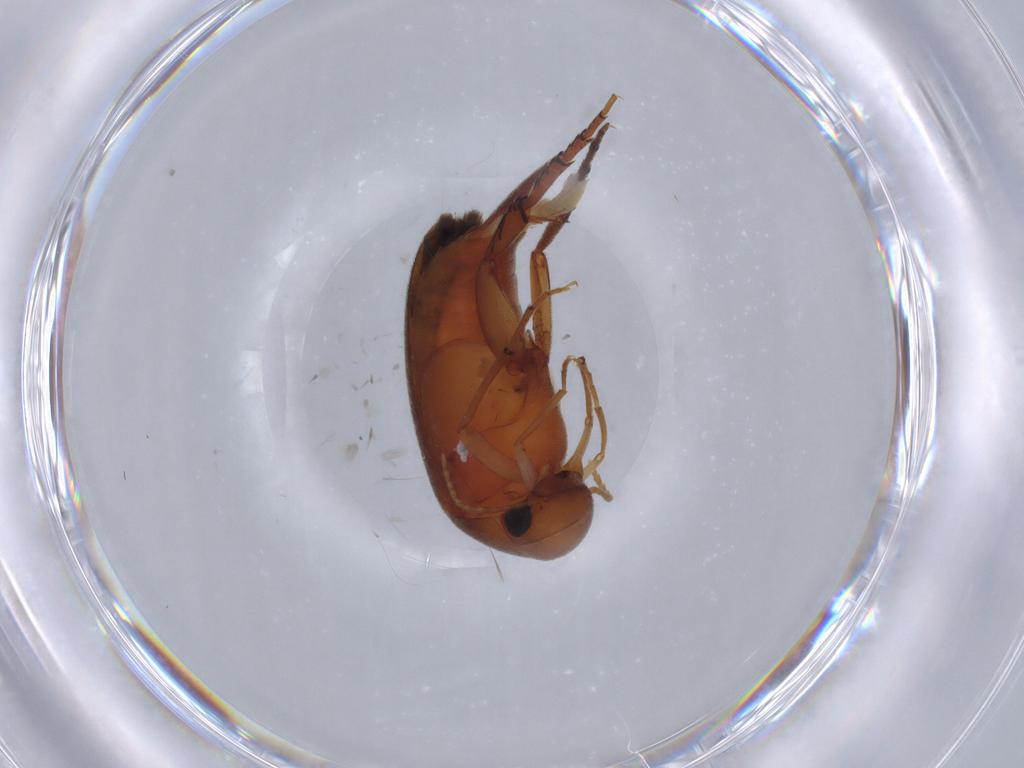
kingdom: Animalia
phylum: Arthropoda
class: Insecta
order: Coleoptera
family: Mordellidae
